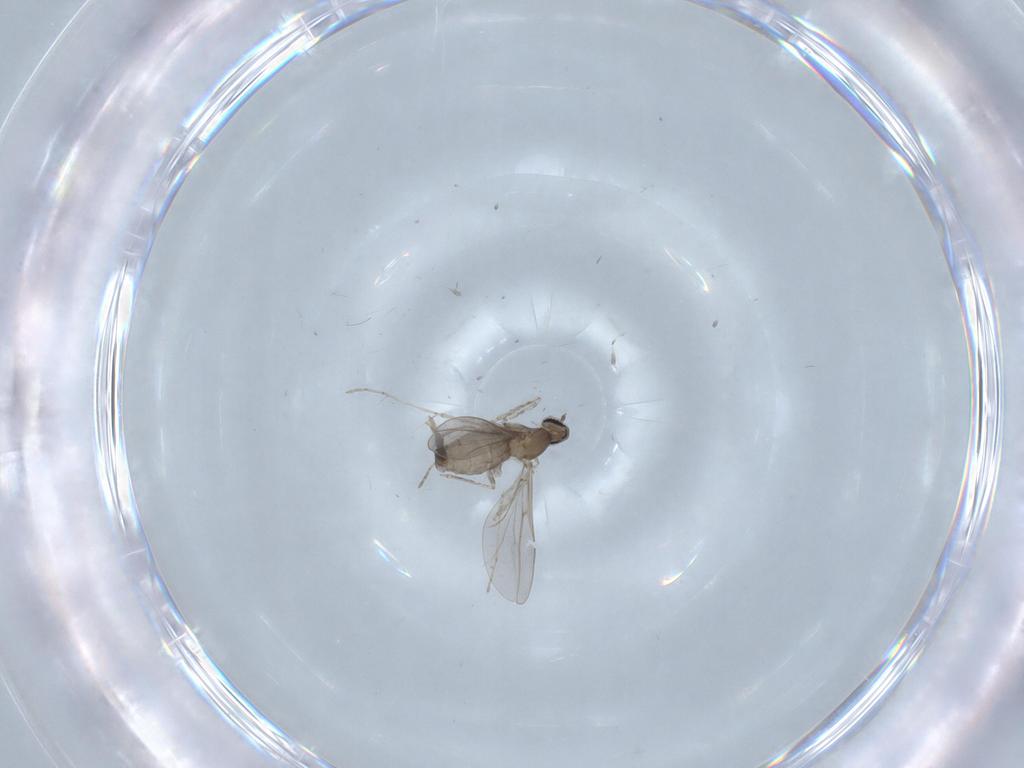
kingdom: Animalia
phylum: Arthropoda
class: Insecta
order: Diptera
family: Cecidomyiidae
